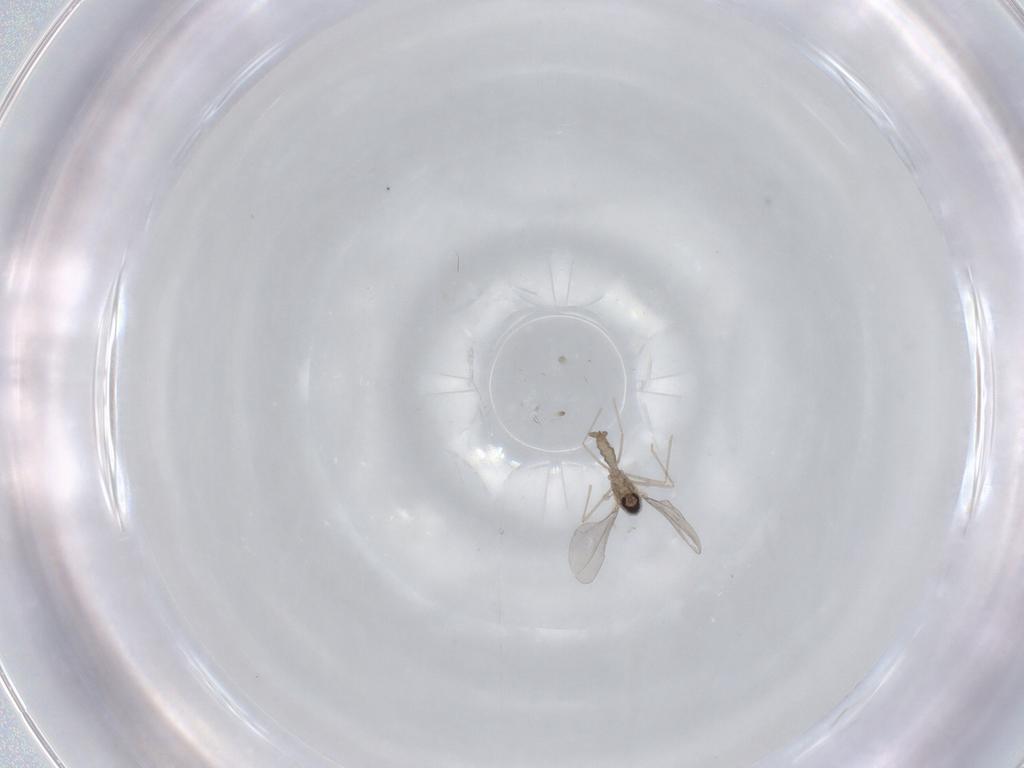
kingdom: Animalia
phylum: Arthropoda
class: Insecta
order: Diptera
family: Cecidomyiidae
